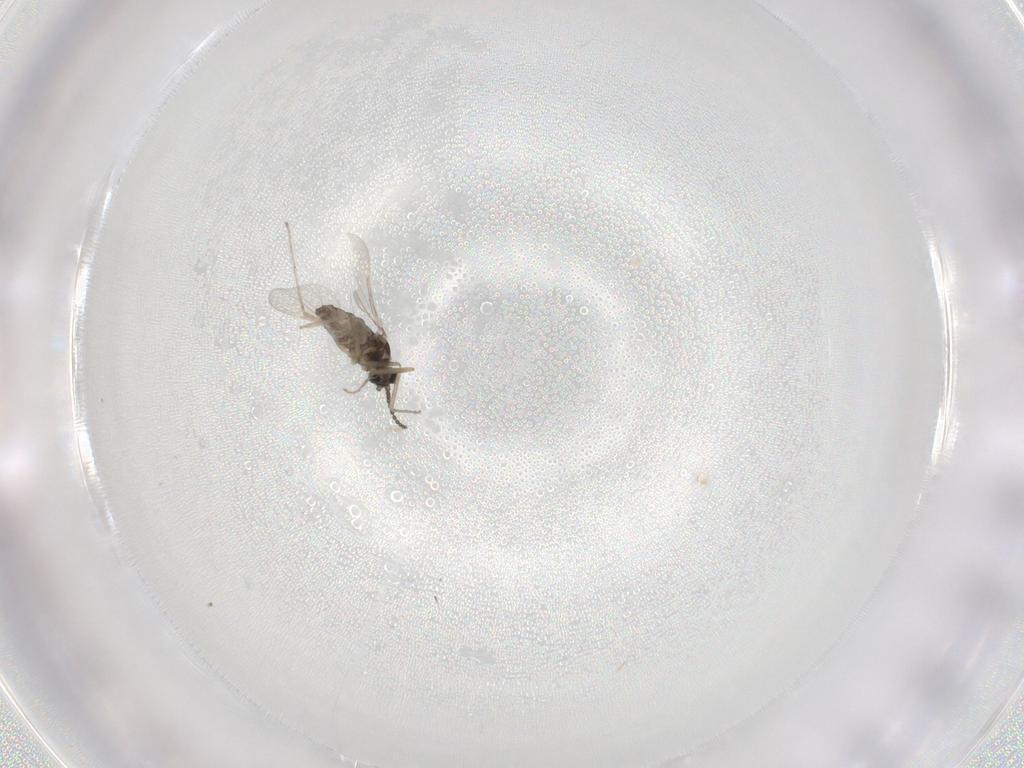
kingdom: Animalia
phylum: Arthropoda
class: Insecta
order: Diptera
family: Cecidomyiidae
